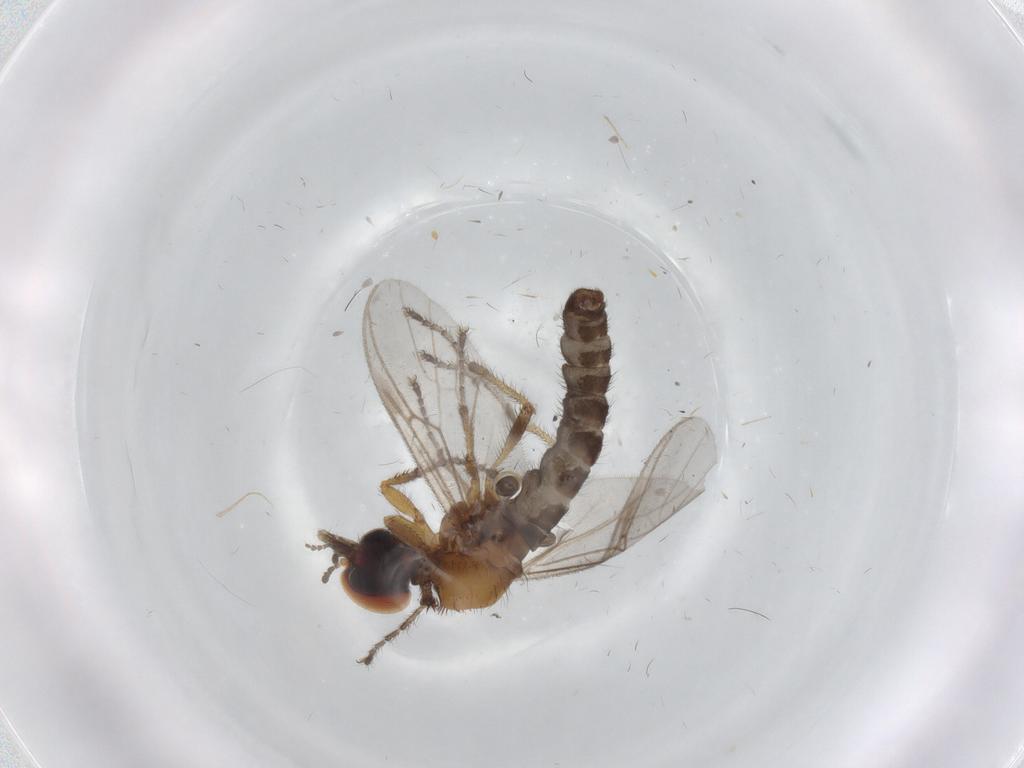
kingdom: Animalia
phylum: Arthropoda
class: Insecta
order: Diptera
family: Bibionidae
